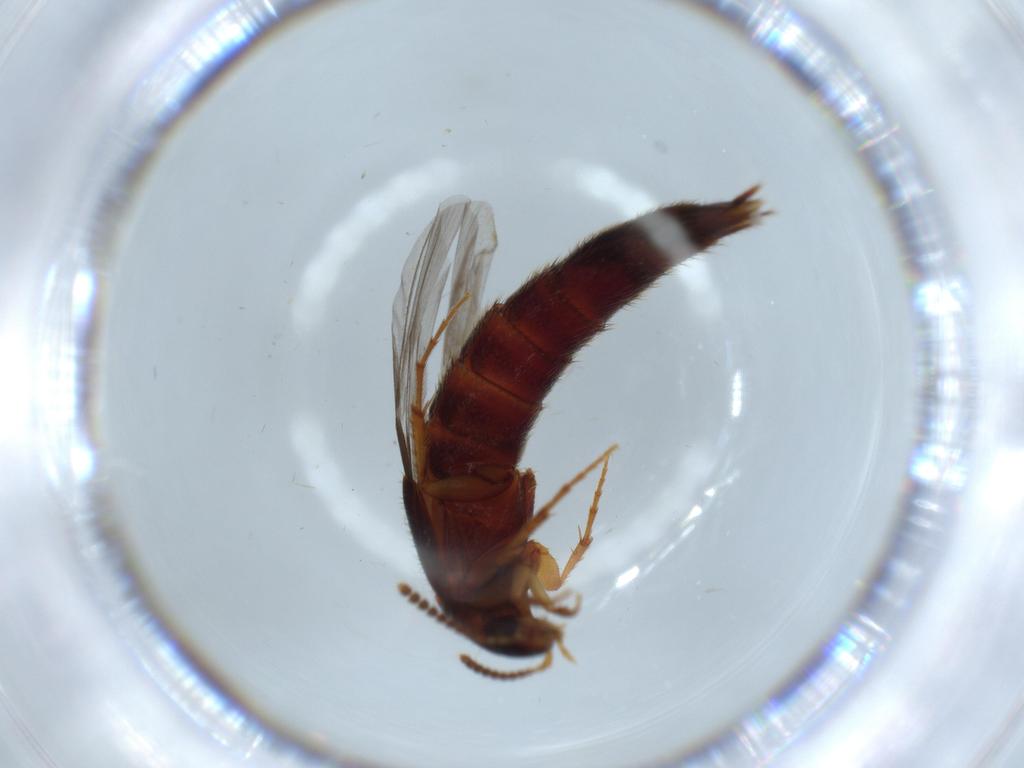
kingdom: Animalia
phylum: Arthropoda
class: Insecta
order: Coleoptera
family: Staphylinidae
